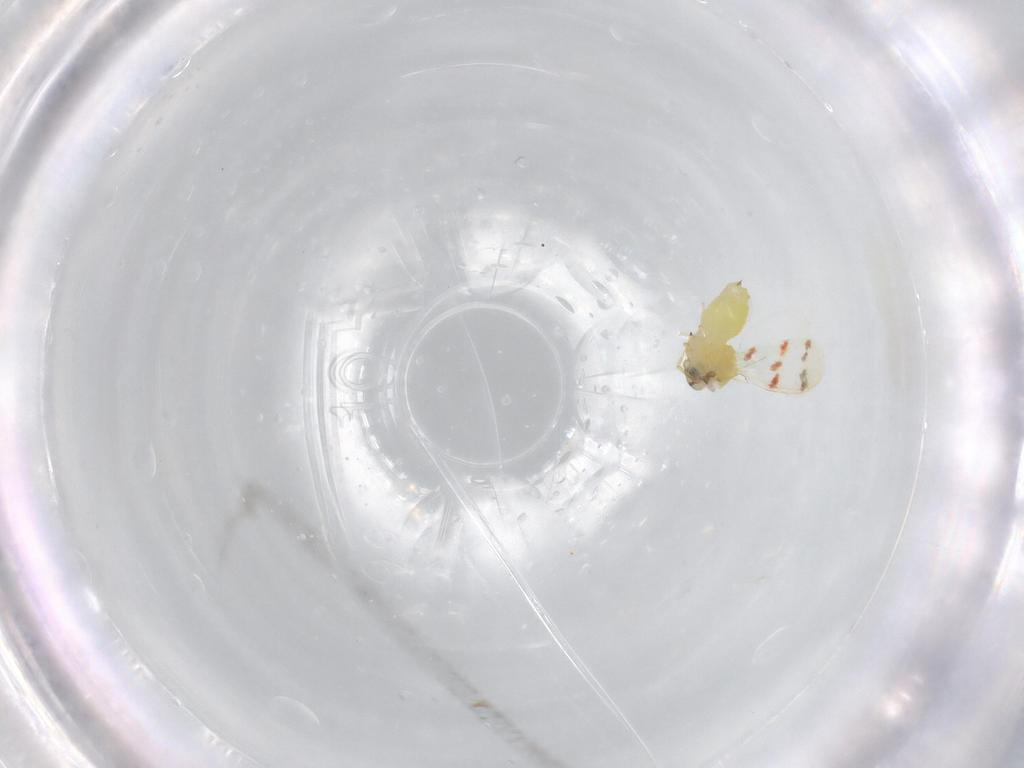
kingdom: Animalia
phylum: Arthropoda
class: Insecta
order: Hemiptera
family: Aleyrodidae
